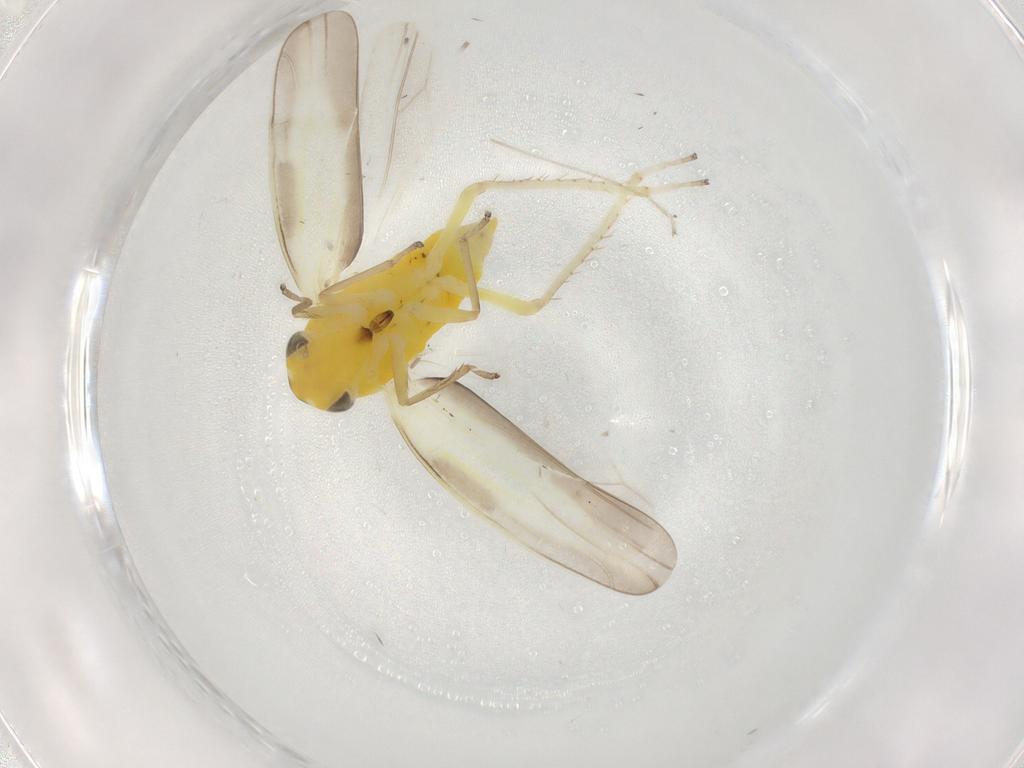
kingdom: Animalia
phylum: Arthropoda
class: Insecta
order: Hemiptera
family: Cicadellidae
